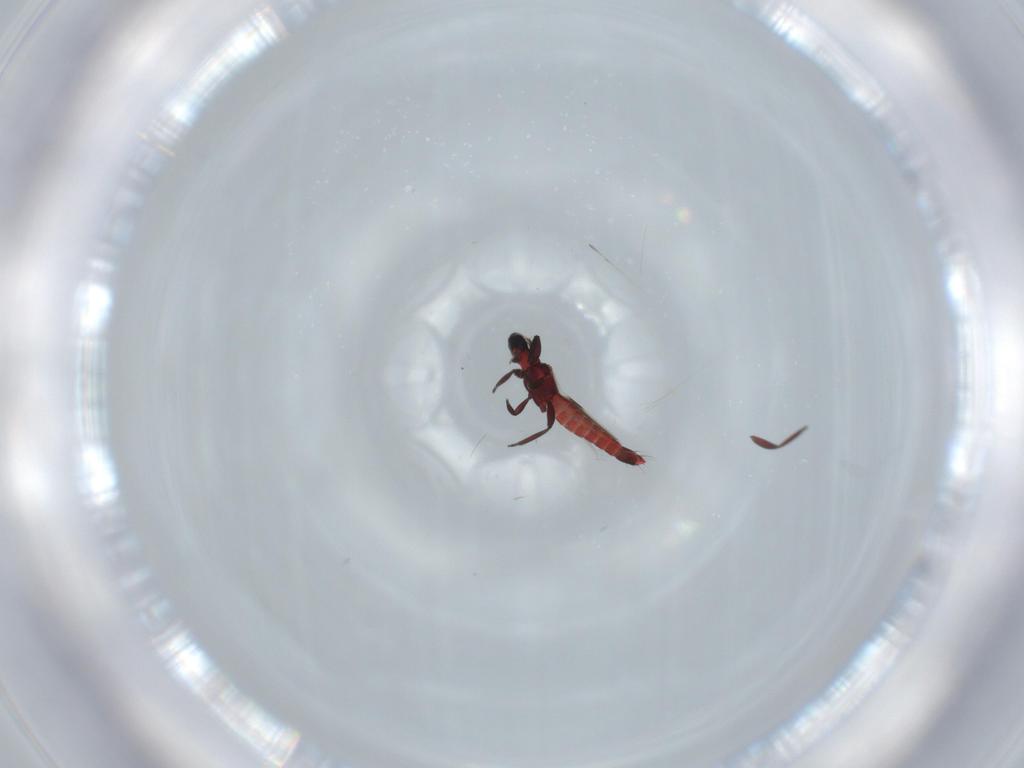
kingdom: Animalia
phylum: Arthropoda
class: Insecta
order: Thysanoptera
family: Aeolothripidae
